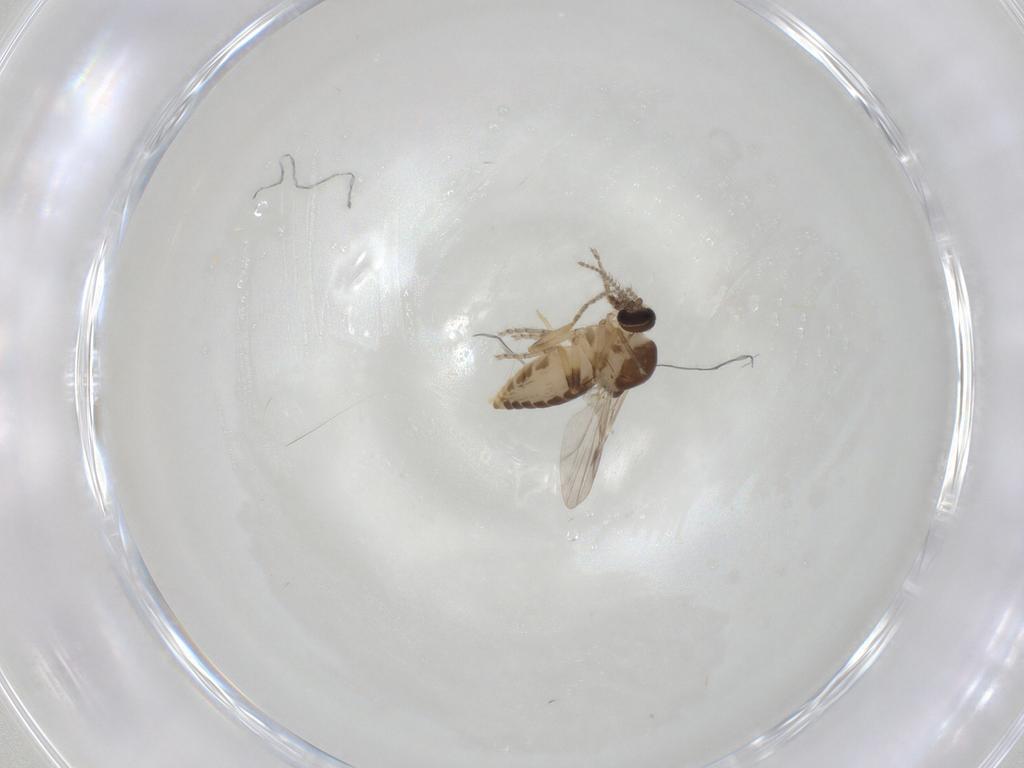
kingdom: Animalia
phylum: Arthropoda
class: Insecta
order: Diptera
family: Ceratopogonidae
